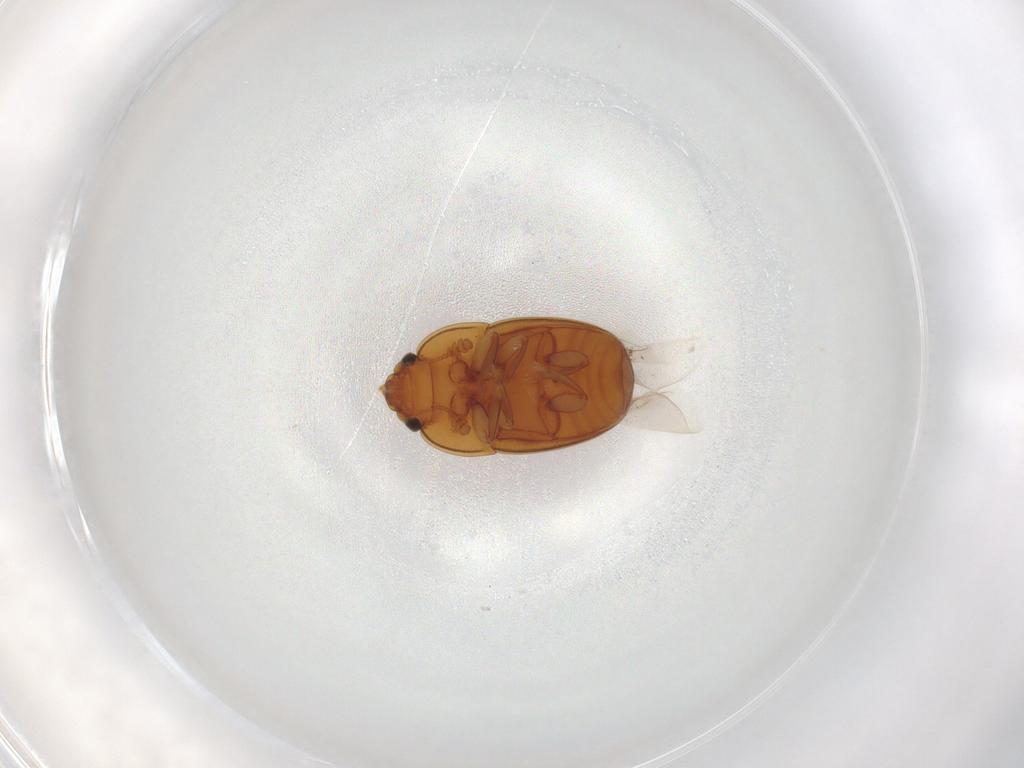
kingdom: Animalia
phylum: Arthropoda
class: Insecta
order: Coleoptera
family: Nitidulidae
